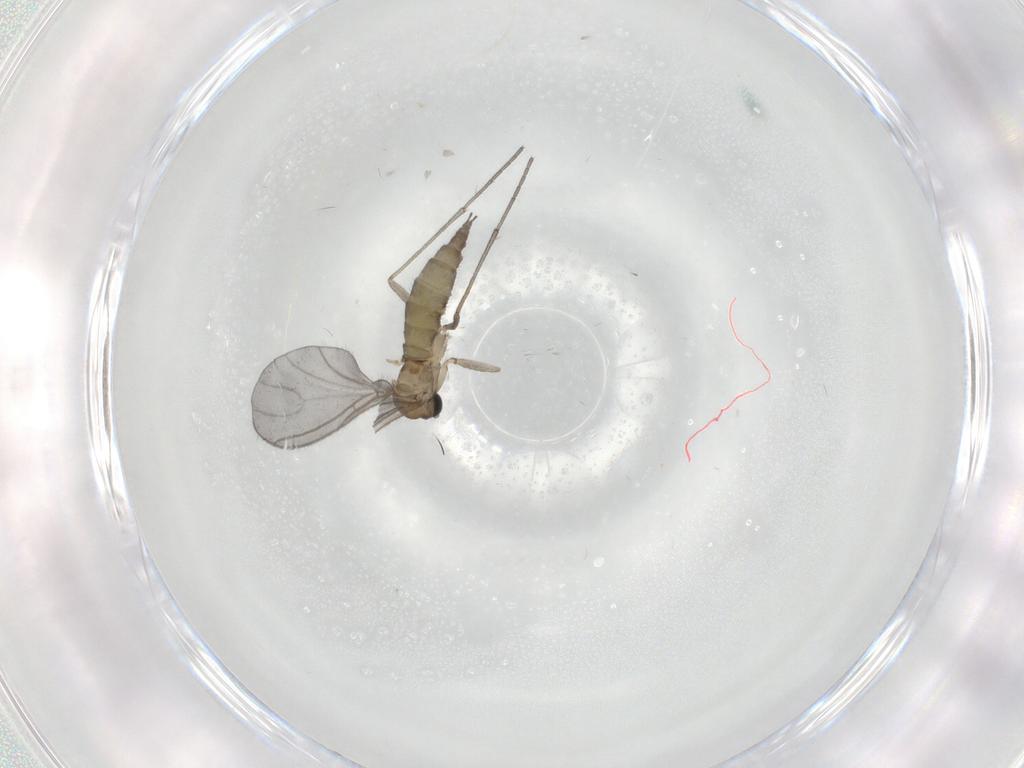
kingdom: Animalia
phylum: Arthropoda
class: Insecta
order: Diptera
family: Sciaridae
